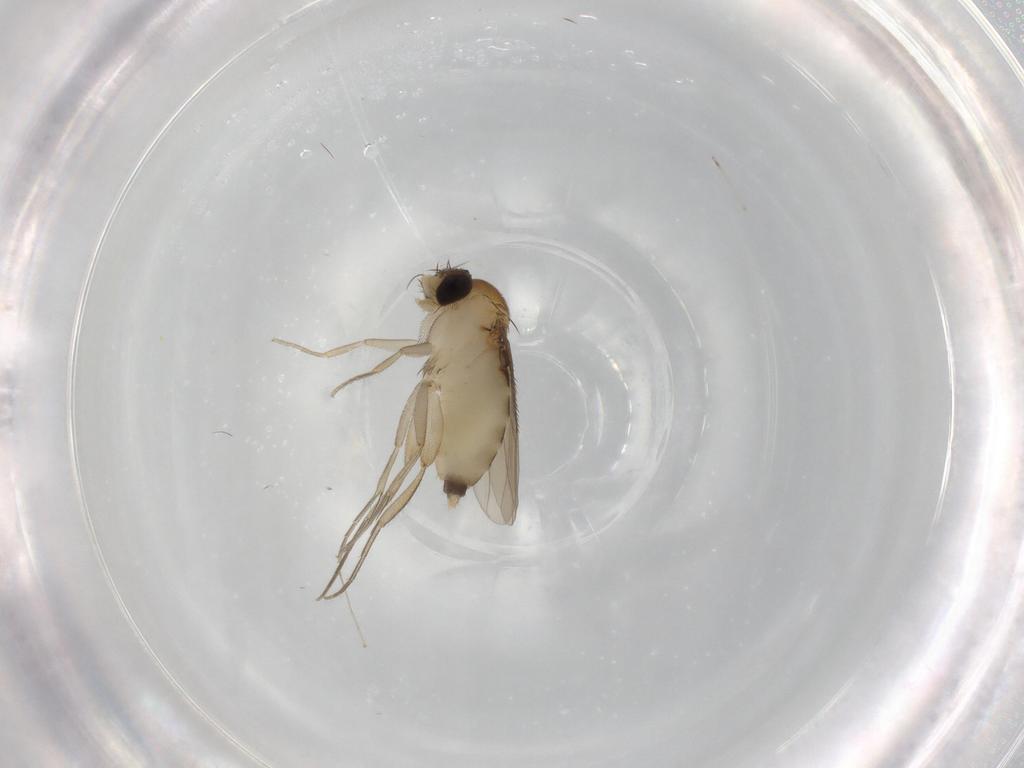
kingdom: Animalia
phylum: Arthropoda
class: Insecta
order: Diptera
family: Phoridae
